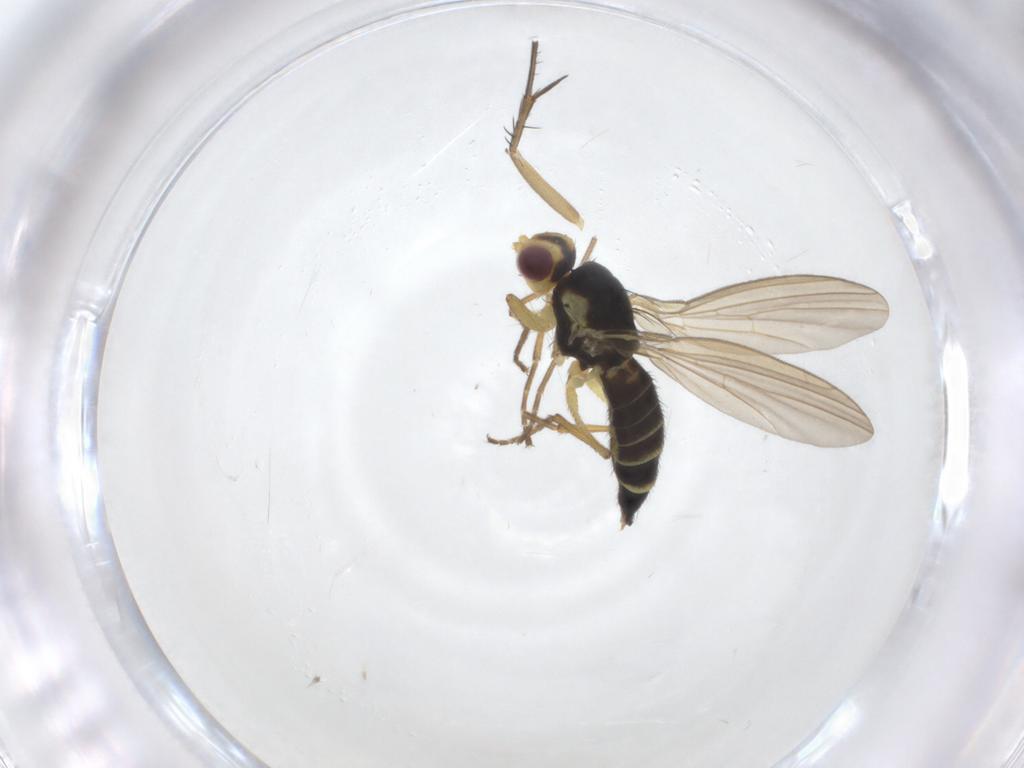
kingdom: Animalia
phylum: Arthropoda
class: Insecta
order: Diptera
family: Agromyzidae
